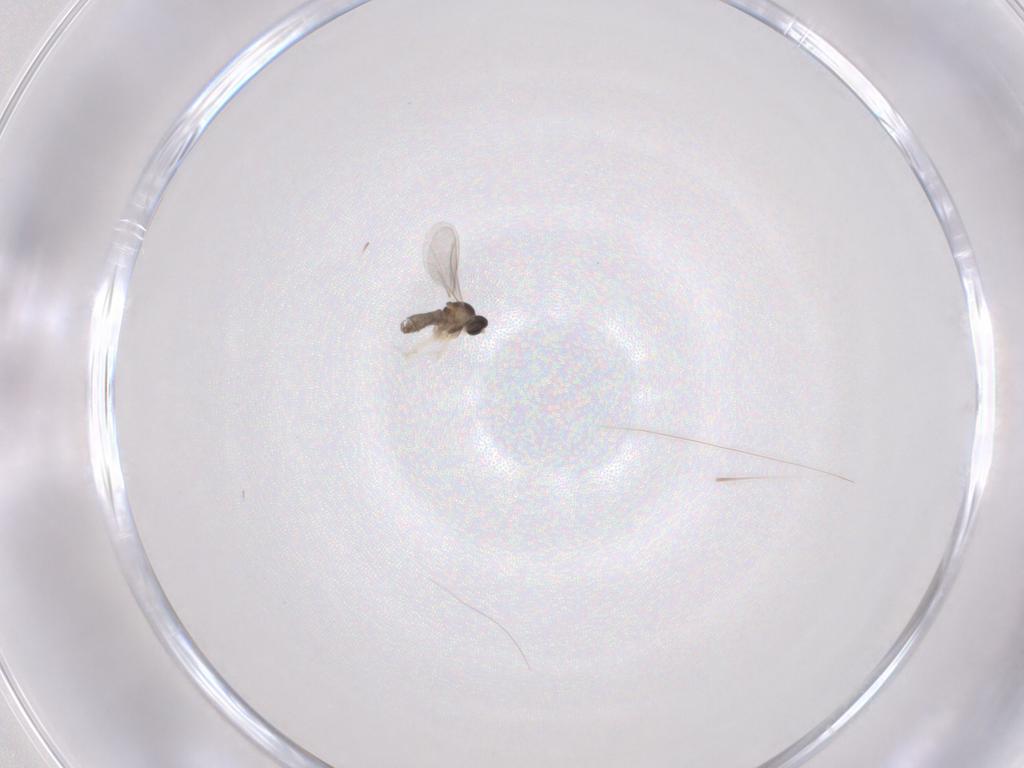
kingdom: Animalia
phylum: Arthropoda
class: Insecta
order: Diptera
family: Cecidomyiidae
